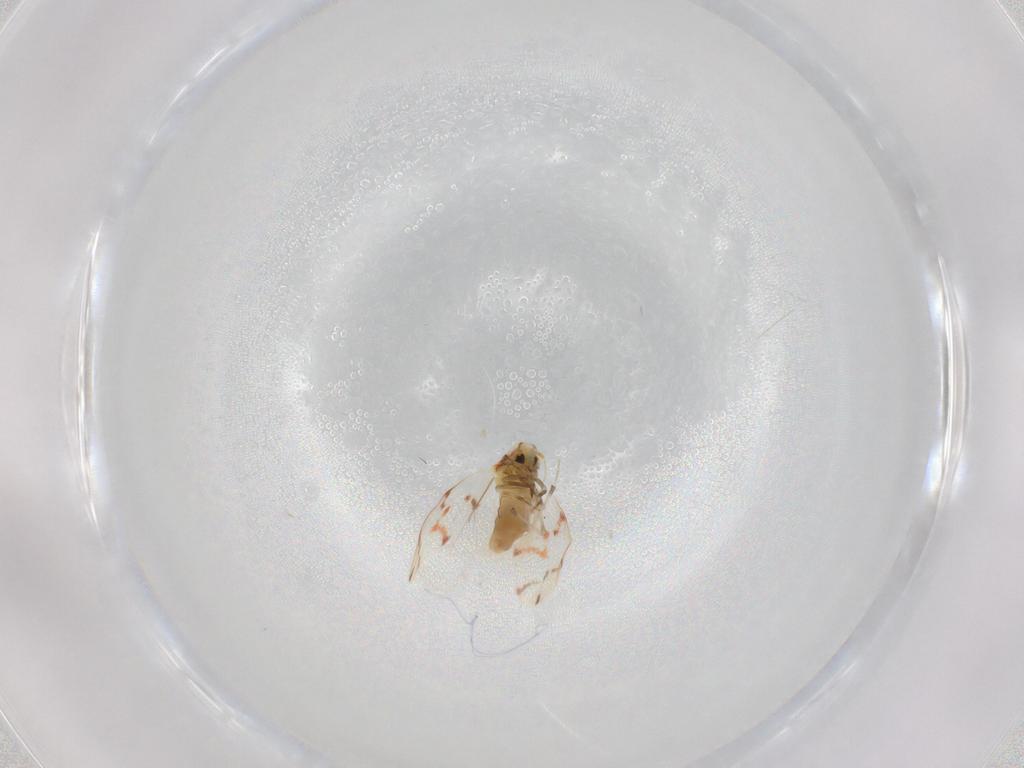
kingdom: Animalia
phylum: Arthropoda
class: Insecta
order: Hemiptera
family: Aleyrodidae
